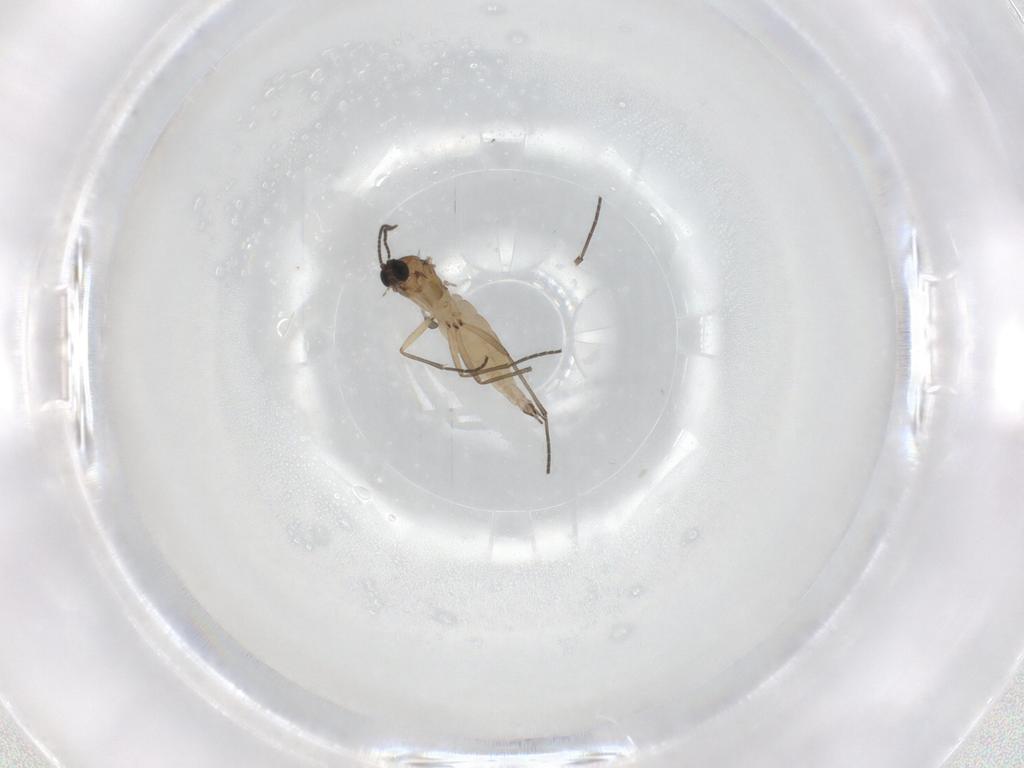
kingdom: Animalia
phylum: Arthropoda
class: Insecta
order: Diptera
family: Sciaridae
